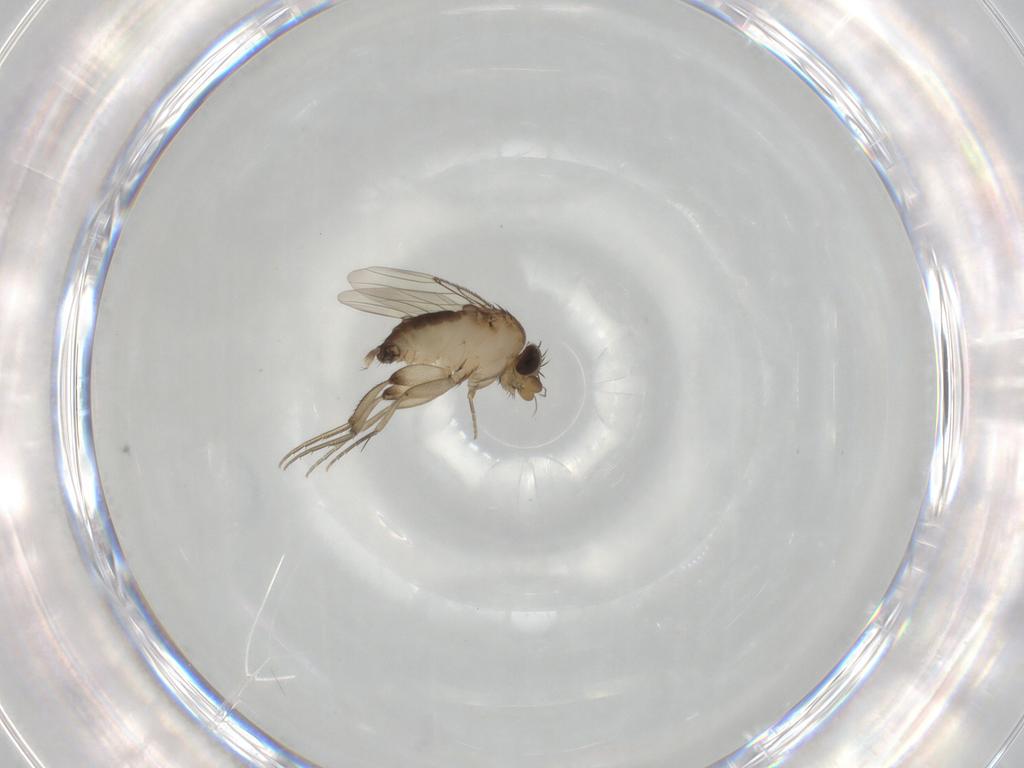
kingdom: Animalia
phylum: Arthropoda
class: Insecta
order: Diptera
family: Phoridae
